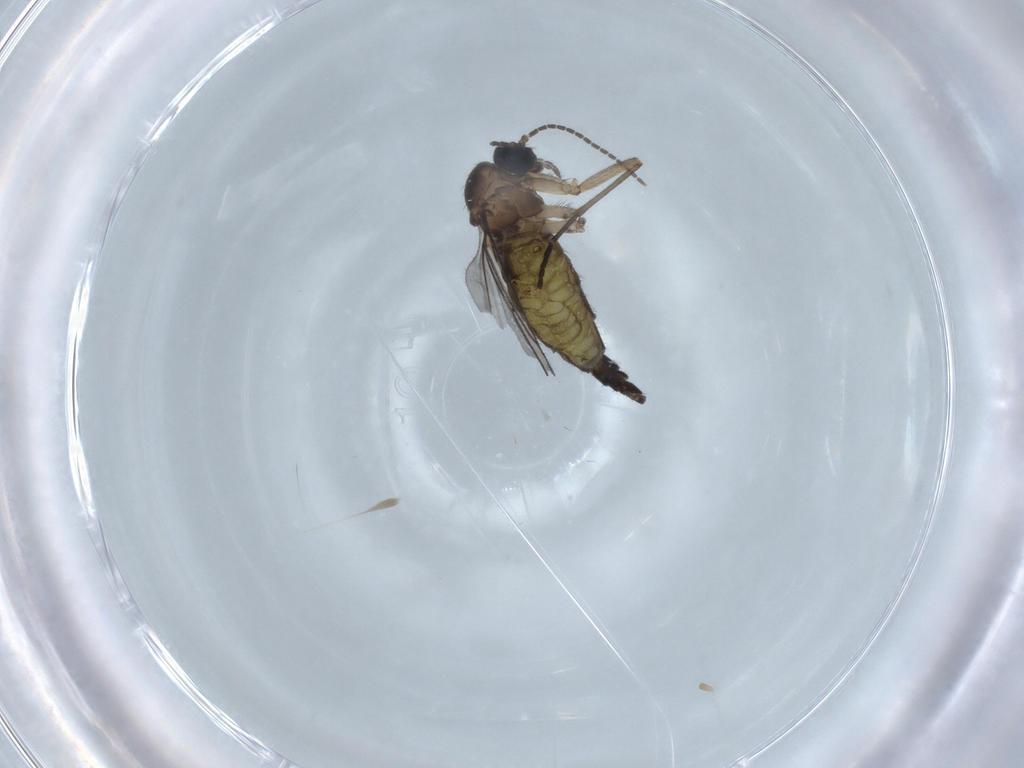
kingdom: Animalia
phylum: Arthropoda
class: Insecta
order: Diptera
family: Sciaridae
